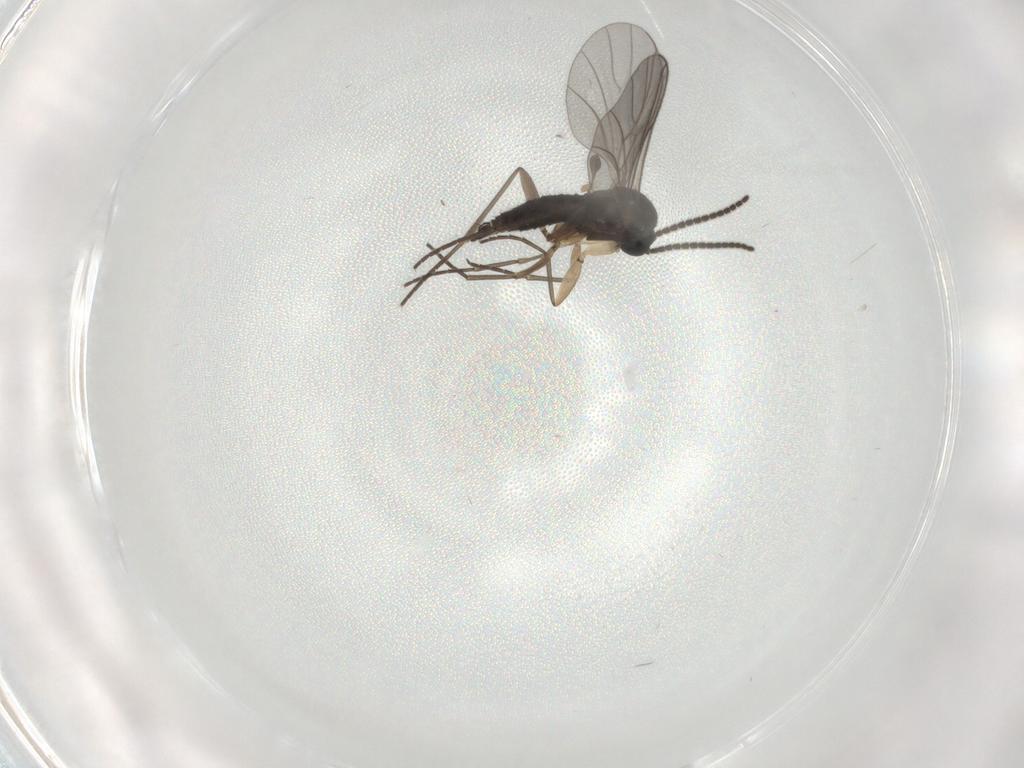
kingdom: Animalia
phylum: Arthropoda
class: Insecta
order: Diptera
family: Sciaridae
